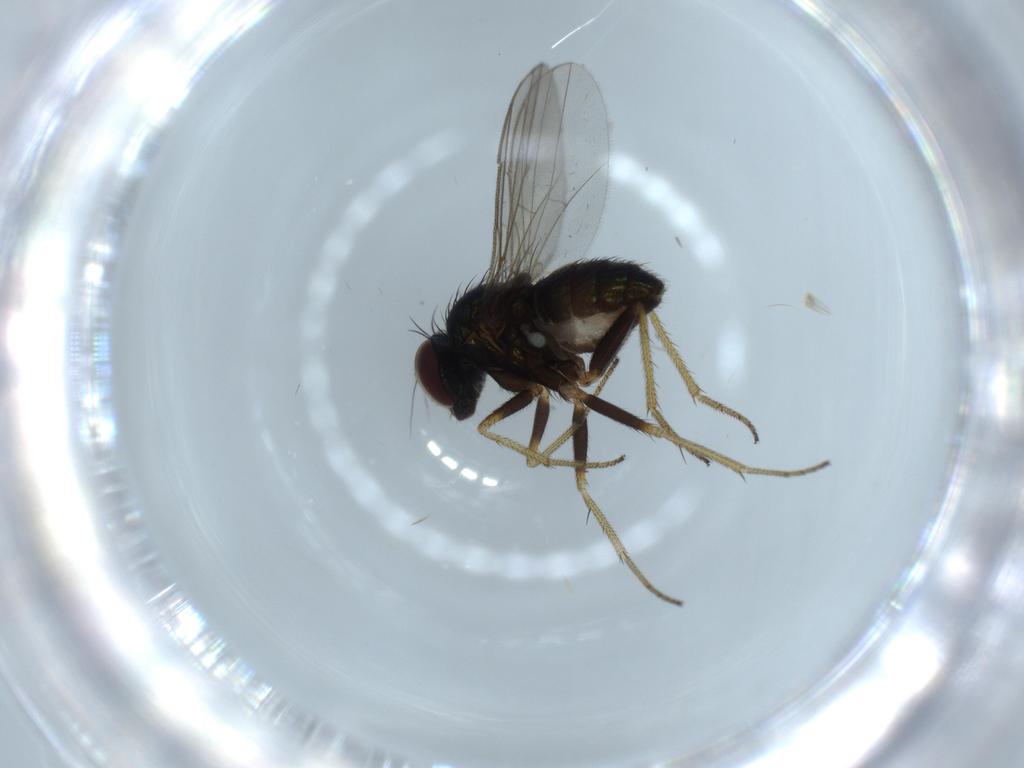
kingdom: Animalia
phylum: Arthropoda
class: Insecta
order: Diptera
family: Dolichopodidae
